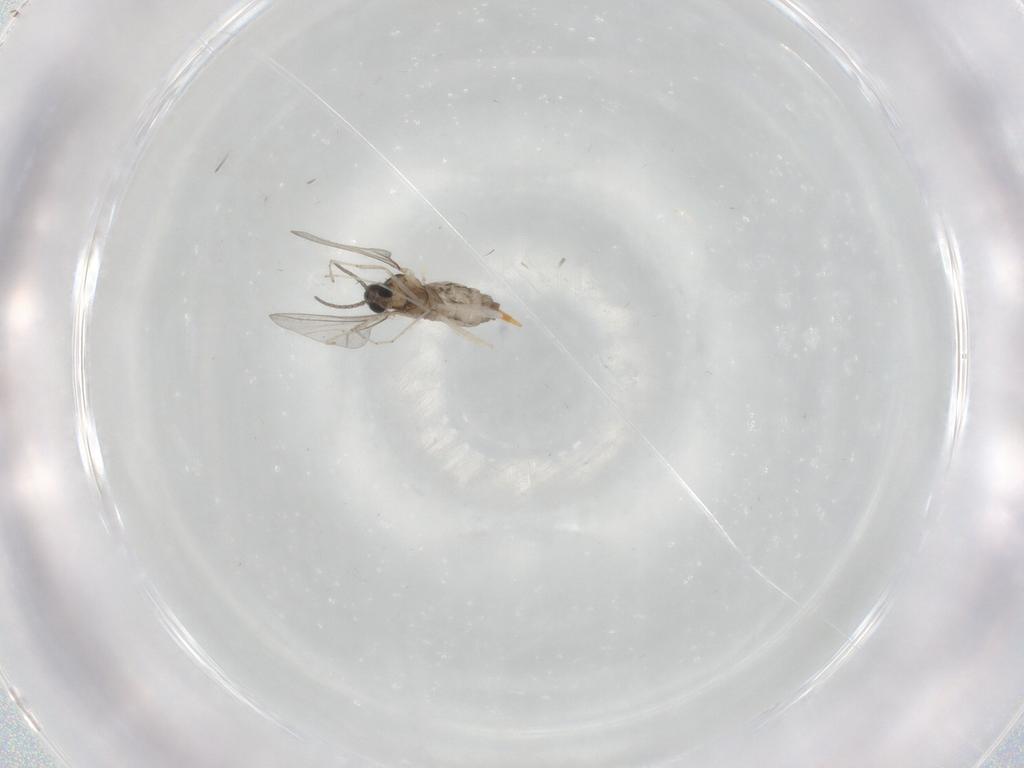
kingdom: Animalia
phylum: Arthropoda
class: Insecta
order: Diptera
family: Cecidomyiidae
